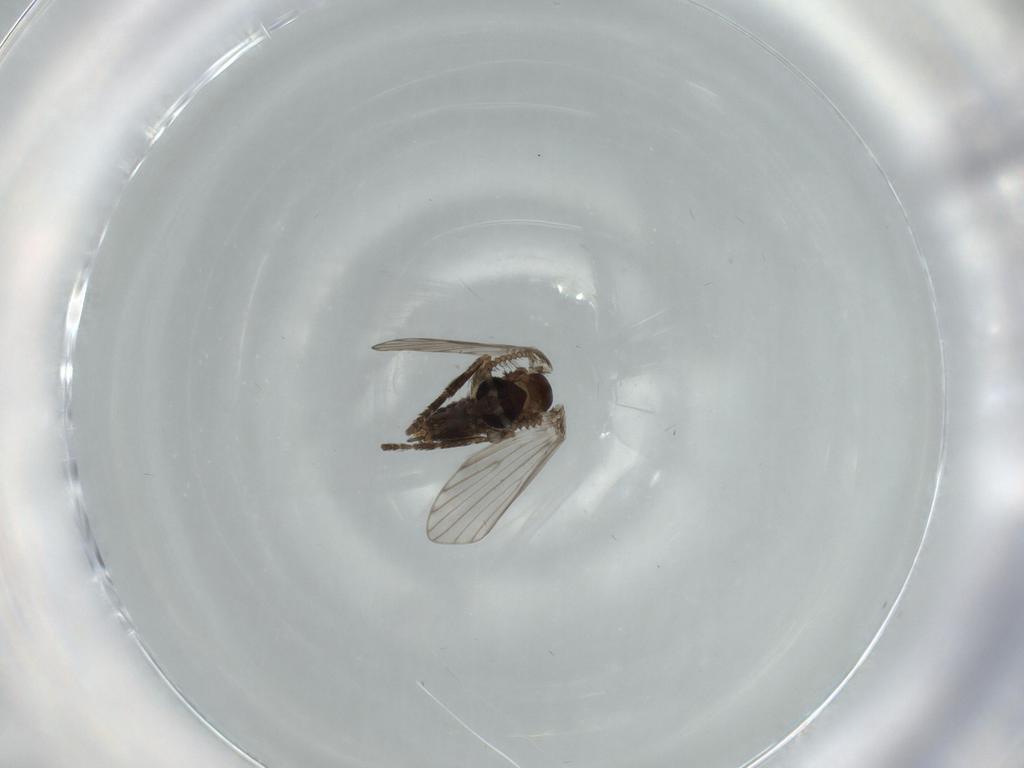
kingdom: Animalia
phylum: Arthropoda
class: Insecta
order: Diptera
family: Psychodidae
